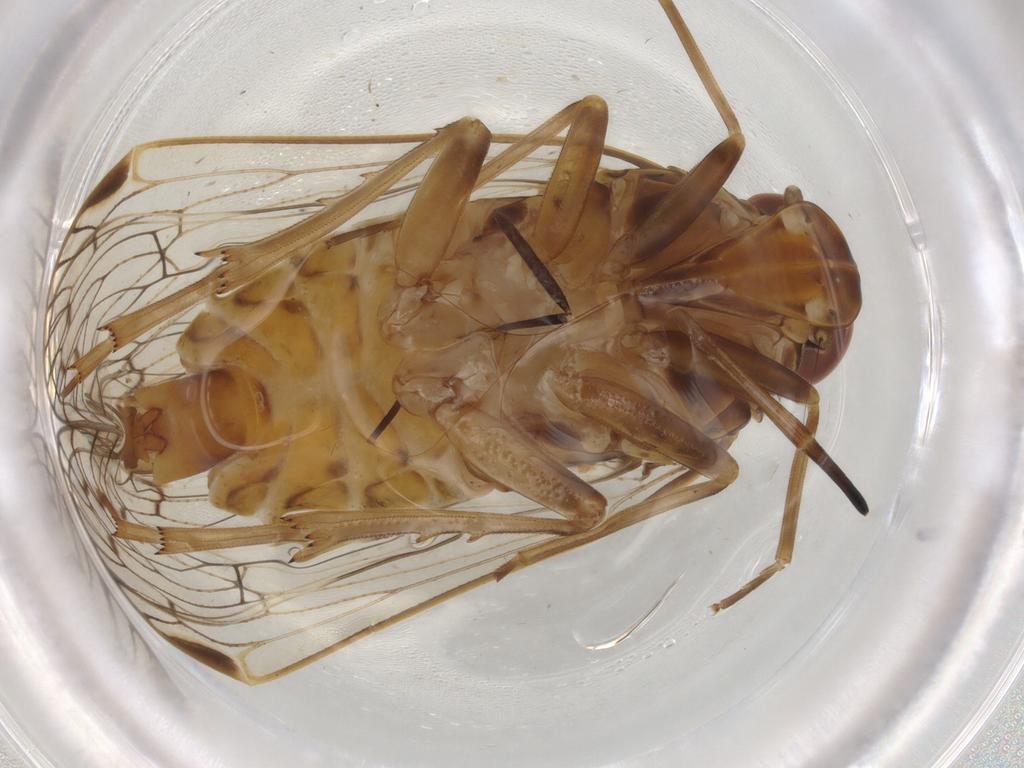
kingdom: Animalia
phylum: Arthropoda
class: Insecta
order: Hemiptera
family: Cixiidae
